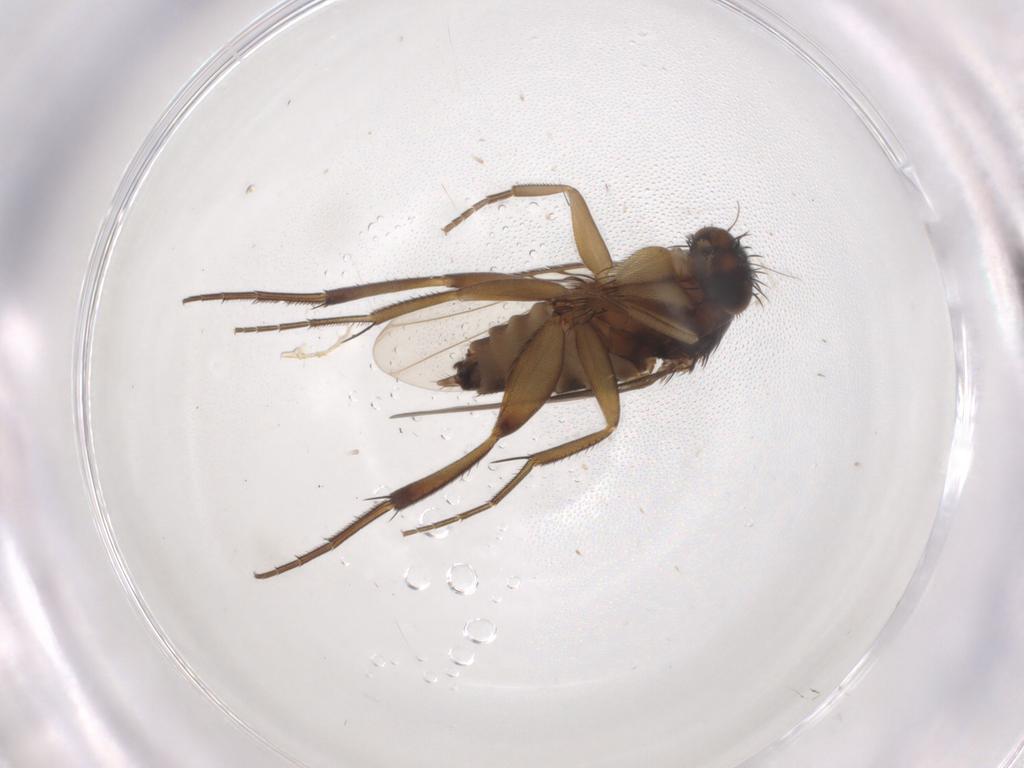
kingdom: Animalia
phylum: Arthropoda
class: Insecta
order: Diptera
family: Phoridae
